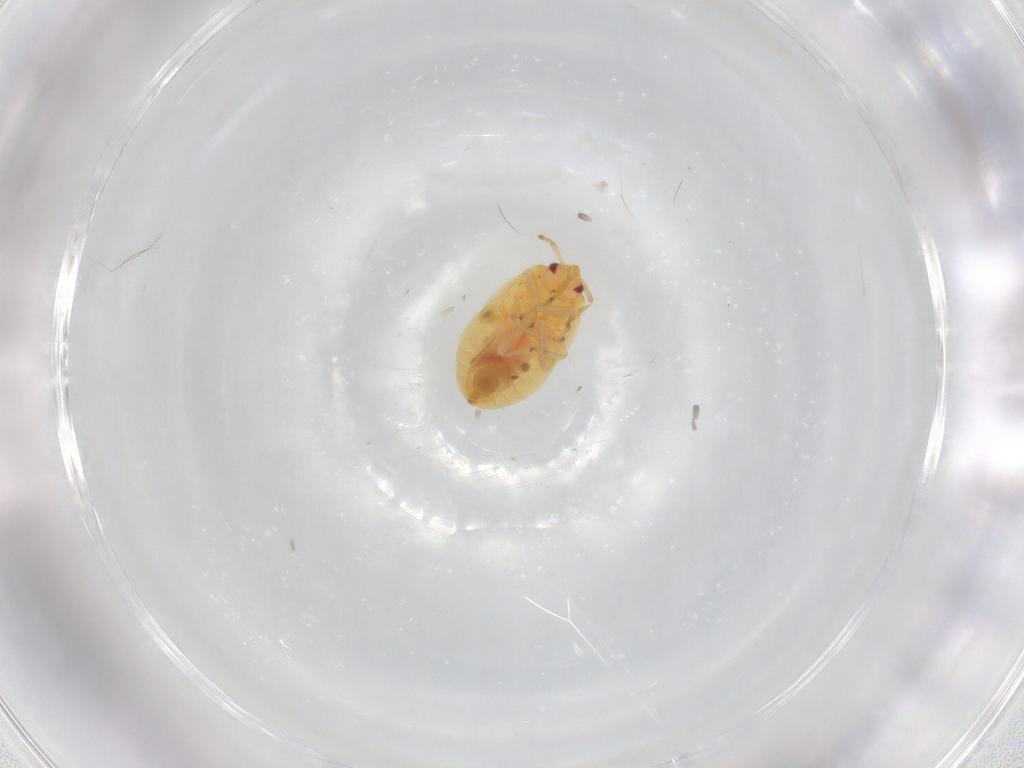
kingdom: Animalia
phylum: Arthropoda
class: Insecta
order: Hemiptera
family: Anthocoridae
